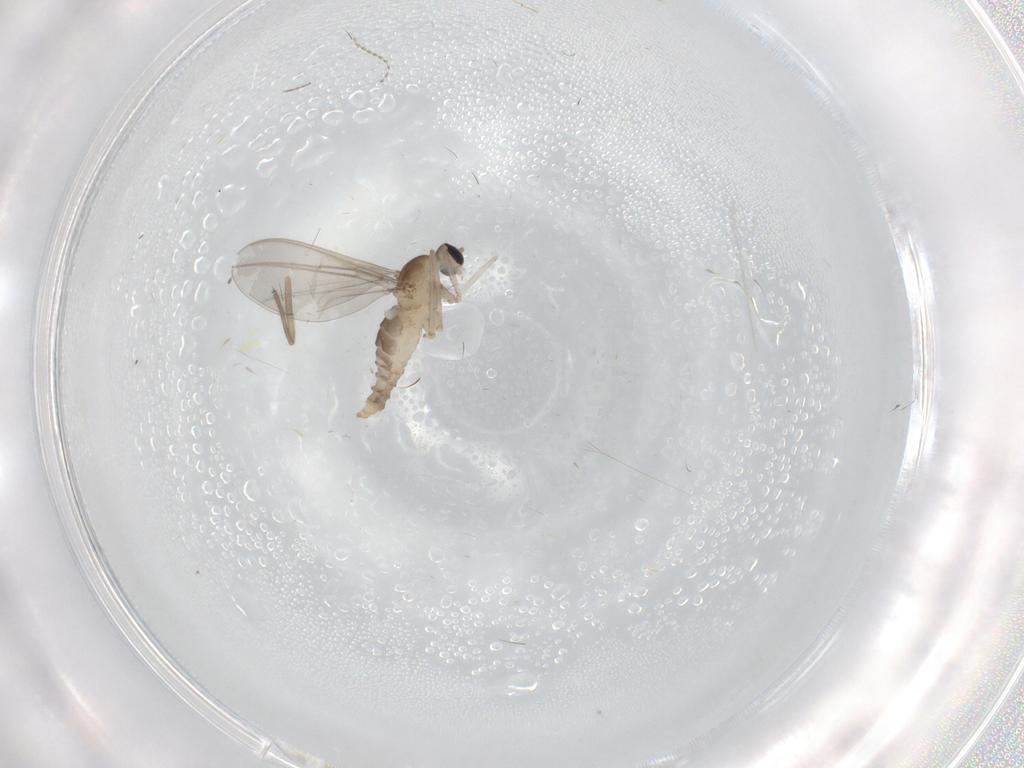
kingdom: Animalia
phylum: Arthropoda
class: Insecta
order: Diptera
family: Cecidomyiidae
